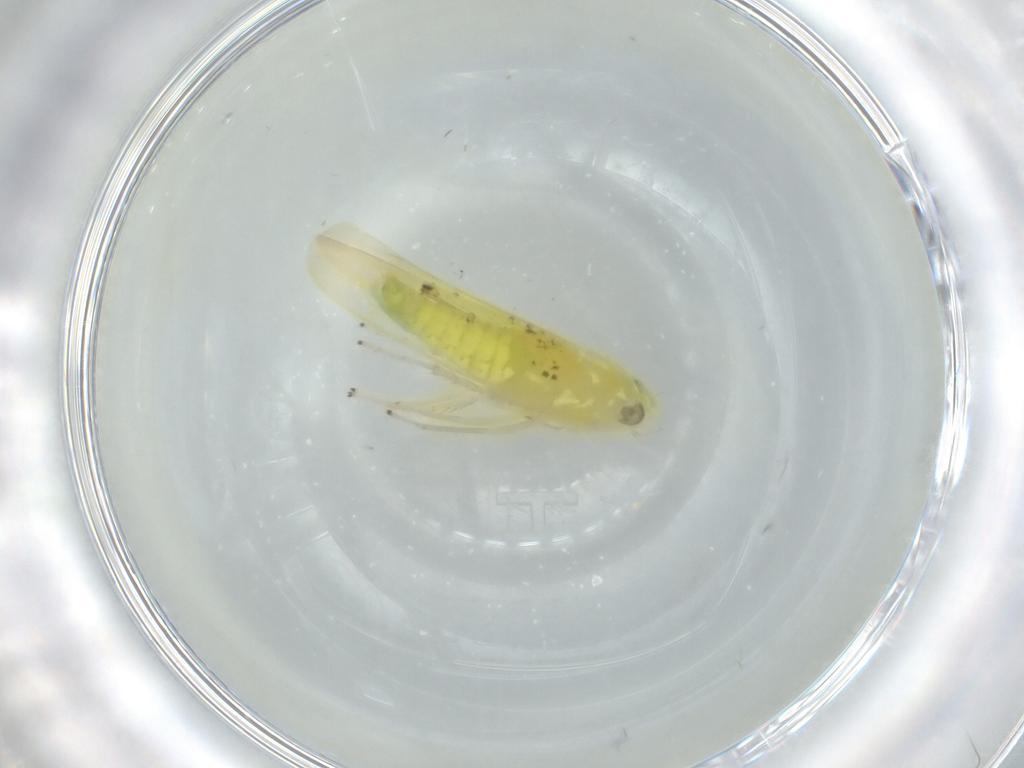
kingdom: Animalia
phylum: Arthropoda
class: Insecta
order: Hemiptera
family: Cicadellidae
